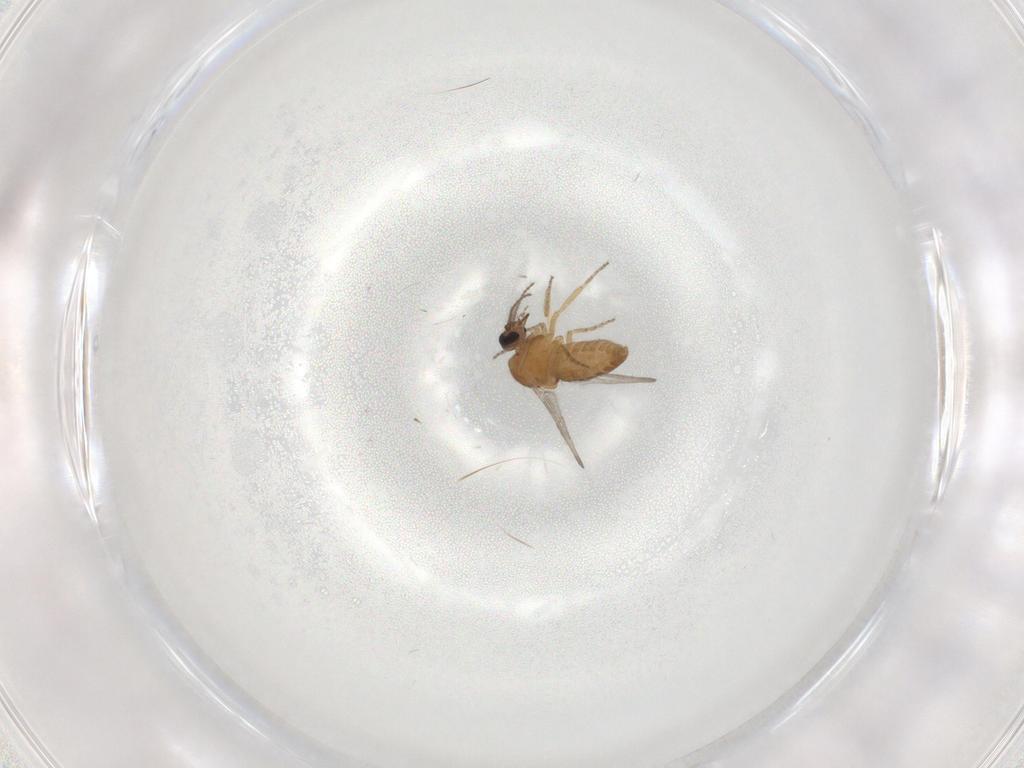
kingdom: Animalia
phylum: Arthropoda
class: Insecta
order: Diptera
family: Ceratopogonidae
